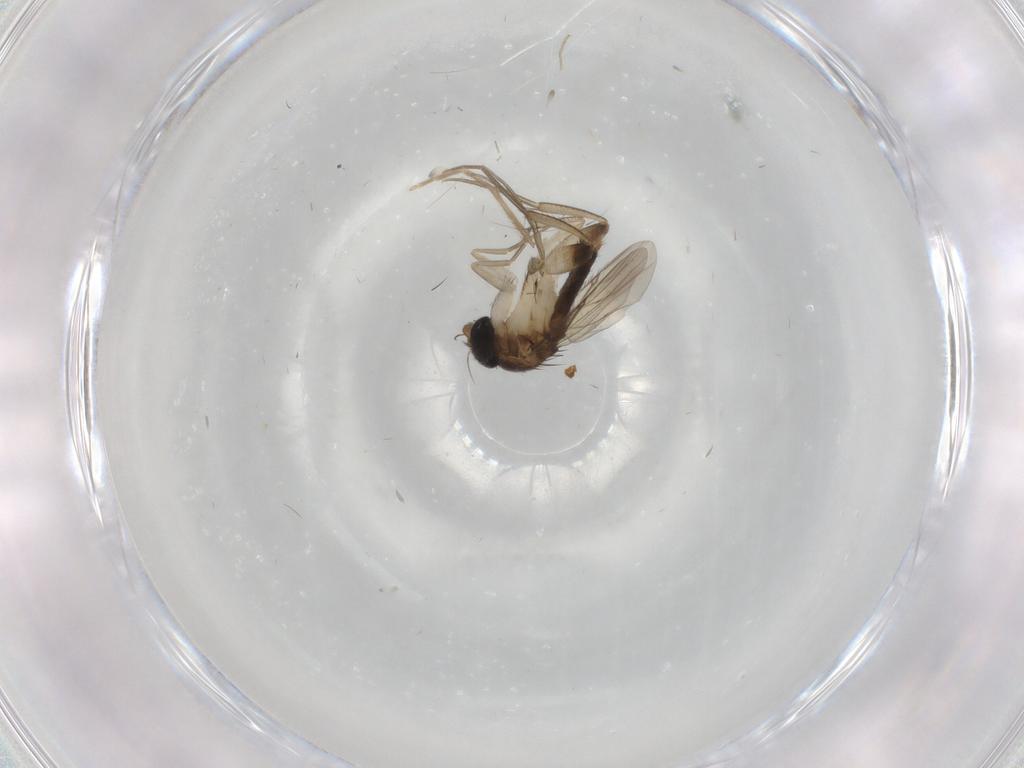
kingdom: Animalia
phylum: Arthropoda
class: Insecta
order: Diptera
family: Phoridae
